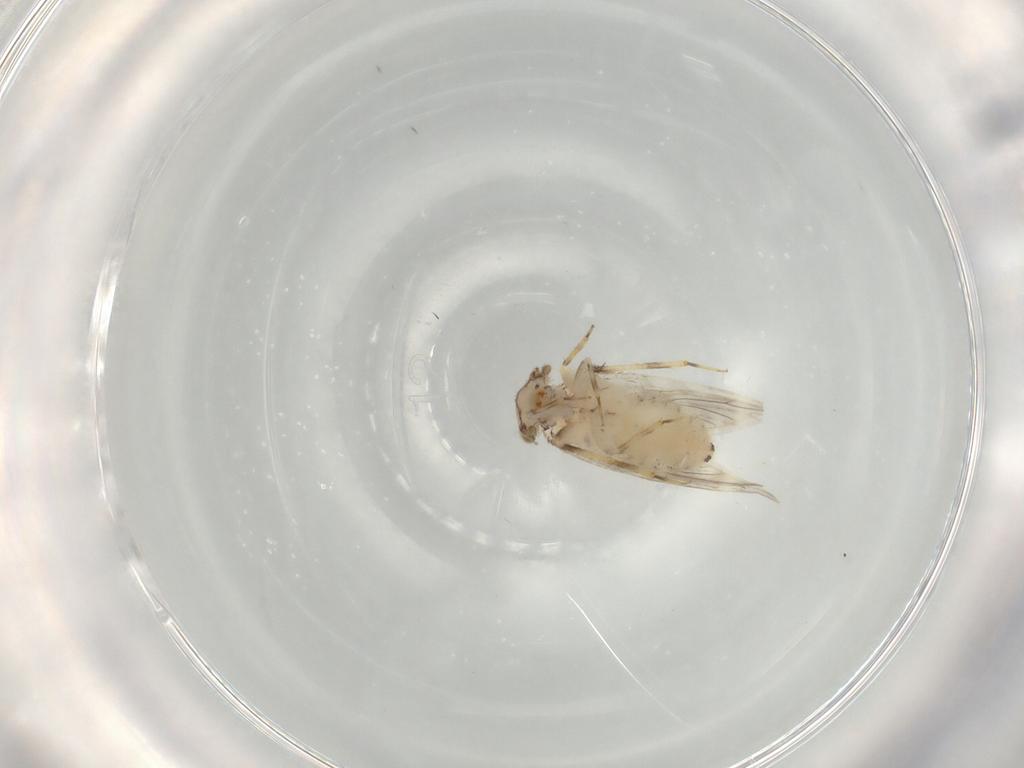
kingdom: Animalia
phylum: Arthropoda
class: Insecta
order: Psocodea
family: Lepidopsocidae
